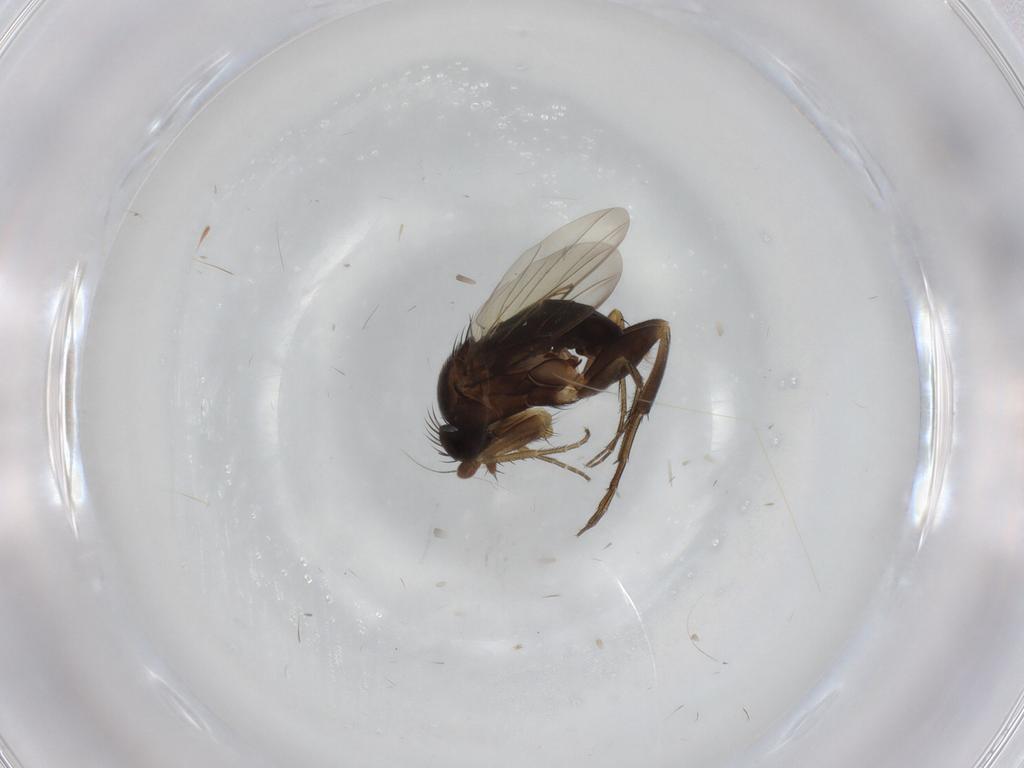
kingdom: Animalia
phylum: Arthropoda
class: Insecta
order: Diptera
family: Phoridae
